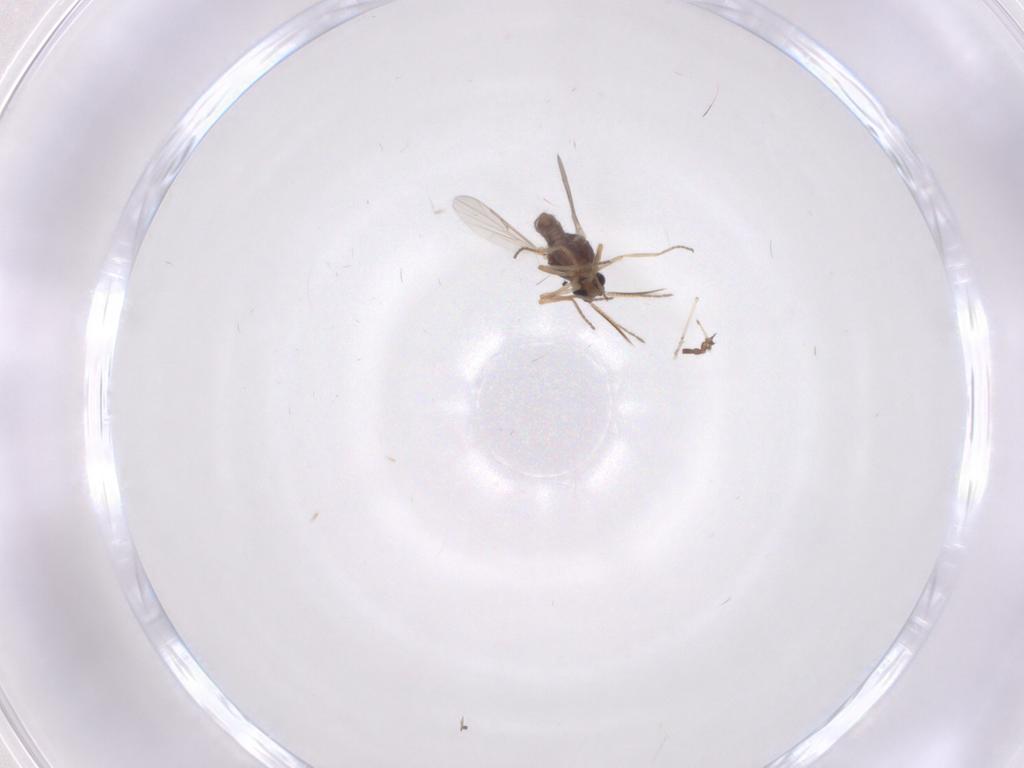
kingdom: Animalia
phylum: Arthropoda
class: Insecta
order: Diptera
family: Ceratopogonidae
